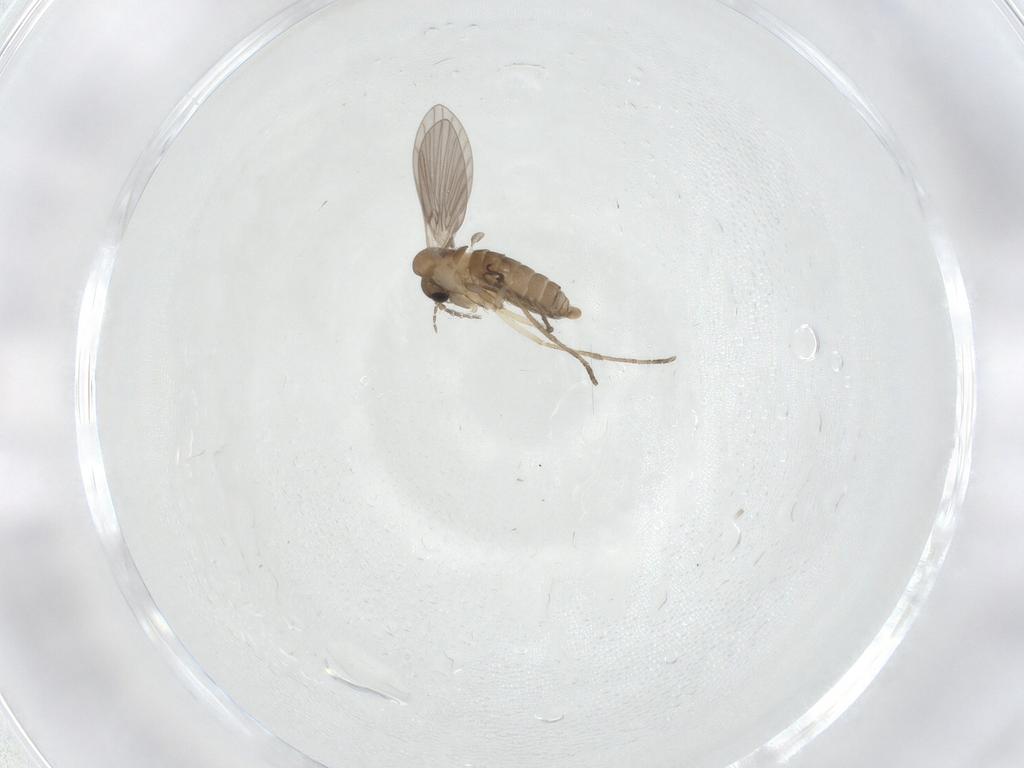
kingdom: Animalia
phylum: Arthropoda
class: Insecta
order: Diptera
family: Cecidomyiidae
